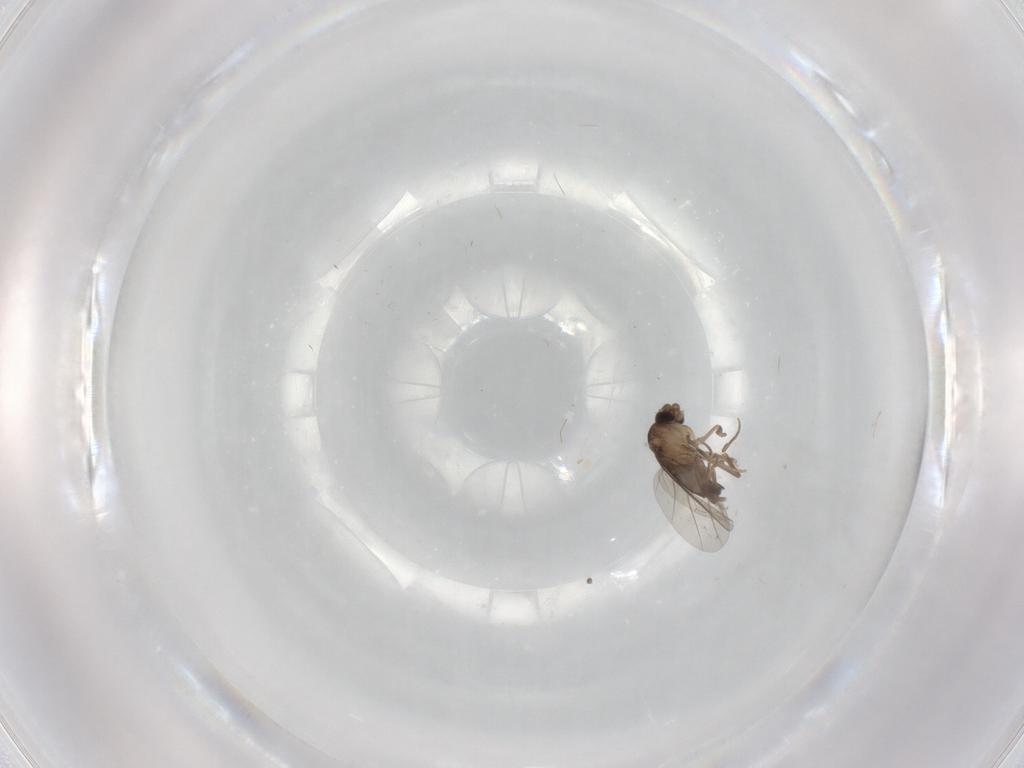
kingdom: Animalia
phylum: Arthropoda
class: Insecta
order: Diptera
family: Phoridae
